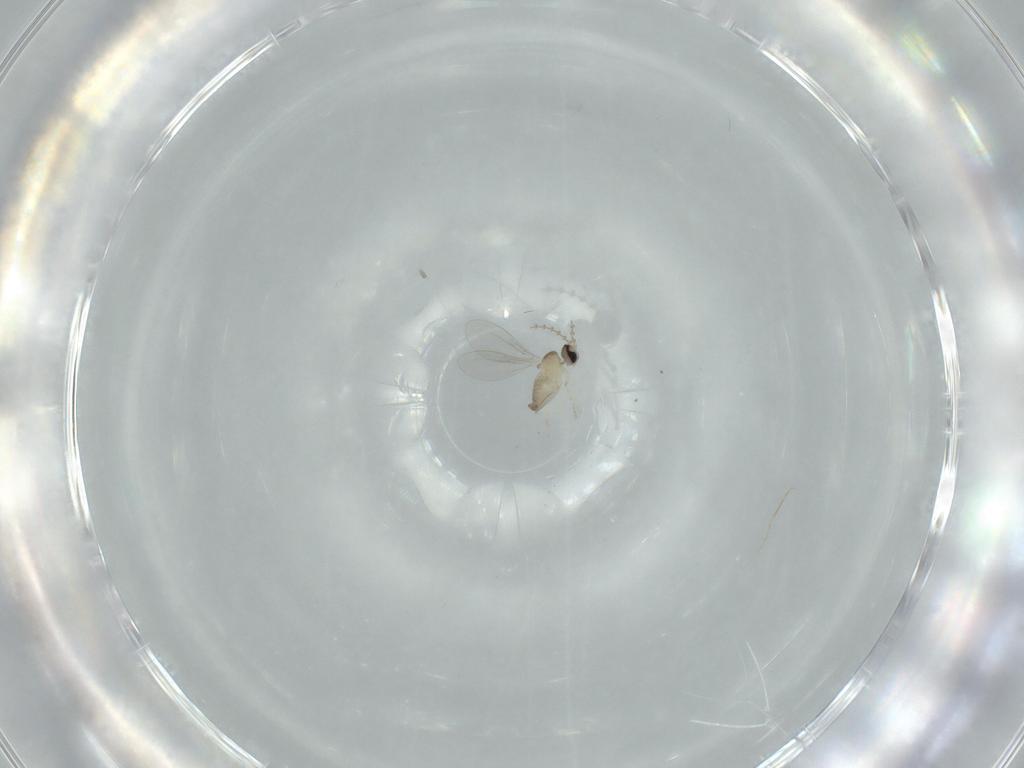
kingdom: Animalia
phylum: Arthropoda
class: Insecta
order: Diptera
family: Cecidomyiidae
